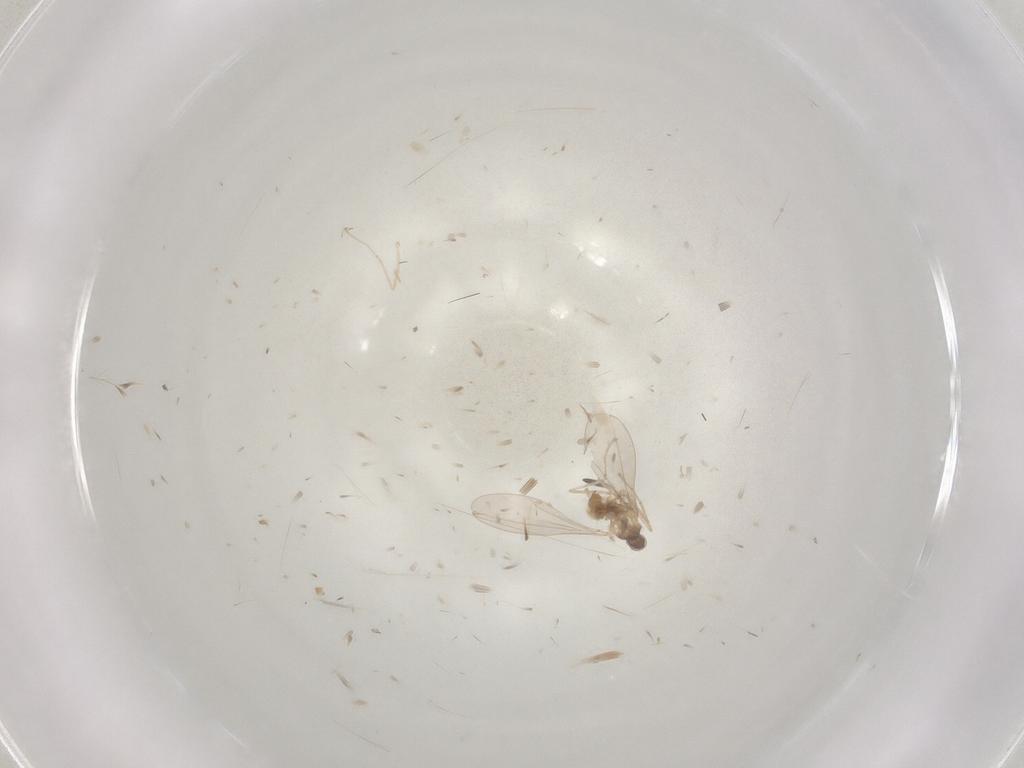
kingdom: Animalia
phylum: Arthropoda
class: Insecta
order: Diptera
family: Cecidomyiidae
